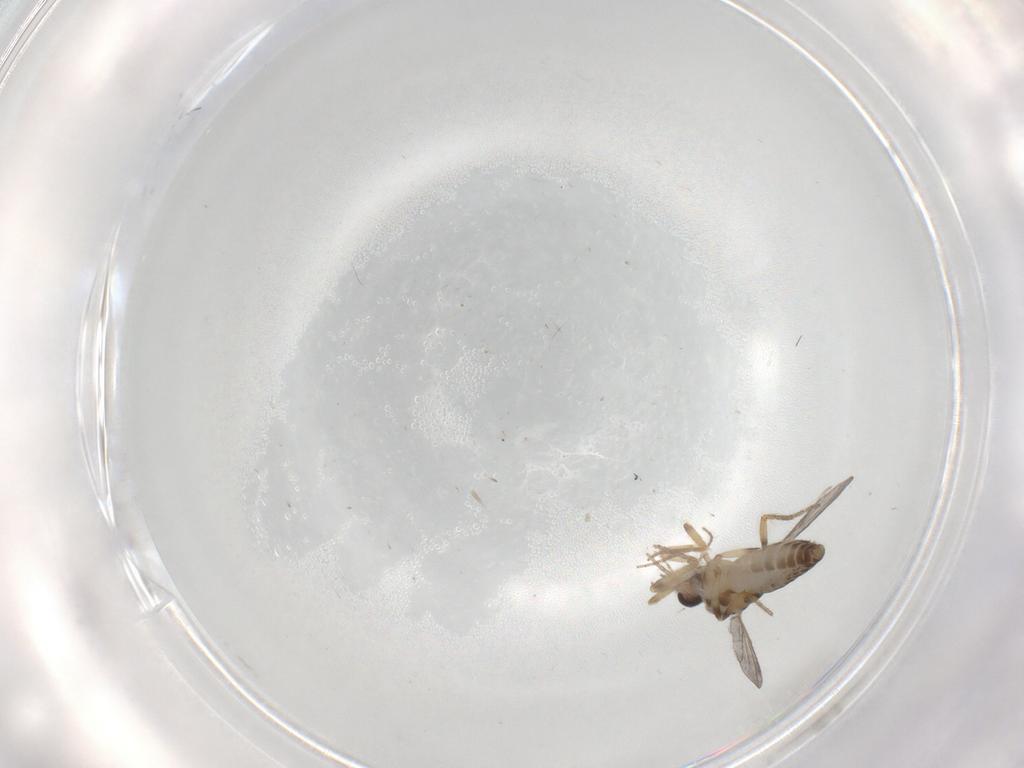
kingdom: Animalia
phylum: Arthropoda
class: Insecta
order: Diptera
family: Ceratopogonidae
